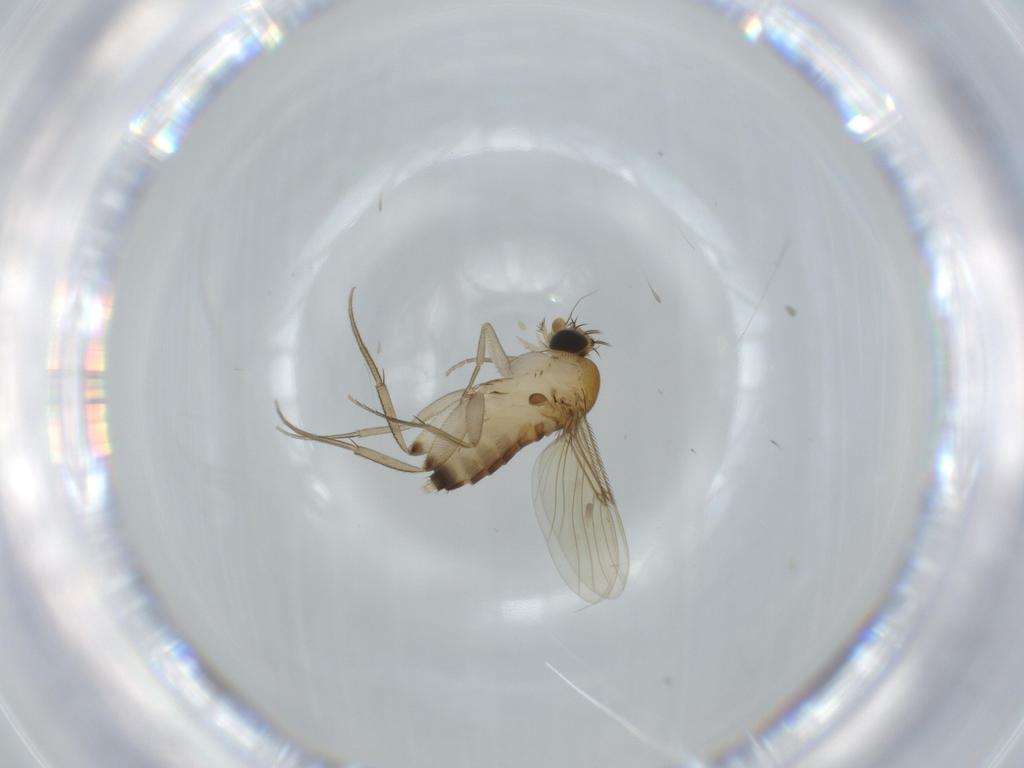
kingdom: Animalia
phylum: Arthropoda
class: Insecta
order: Diptera
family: Phoridae
